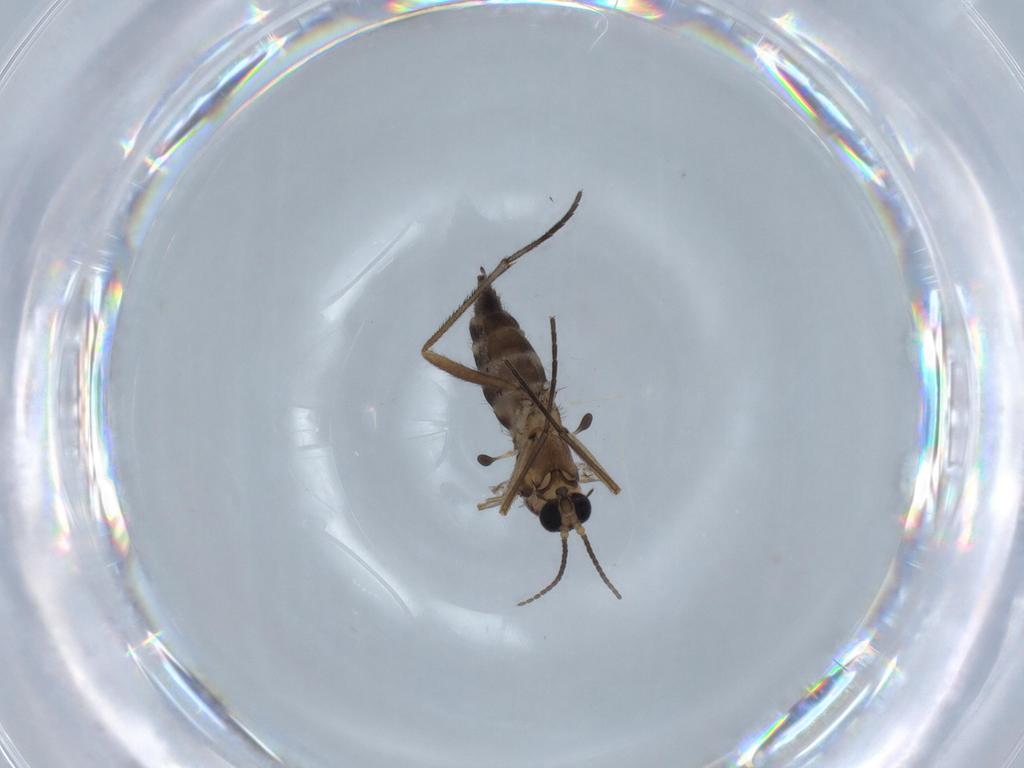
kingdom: Animalia
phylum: Arthropoda
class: Insecta
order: Diptera
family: Sciaridae
